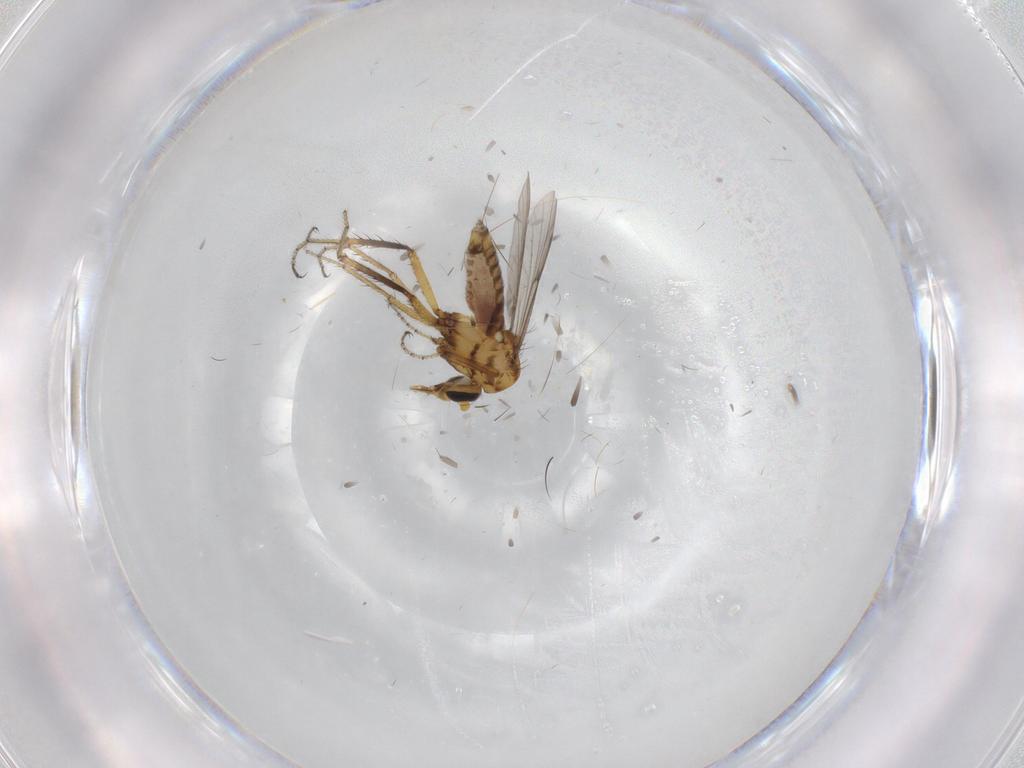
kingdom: Animalia
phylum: Arthropoda
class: Insecta
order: Diptera
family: Ceratopogonidae
